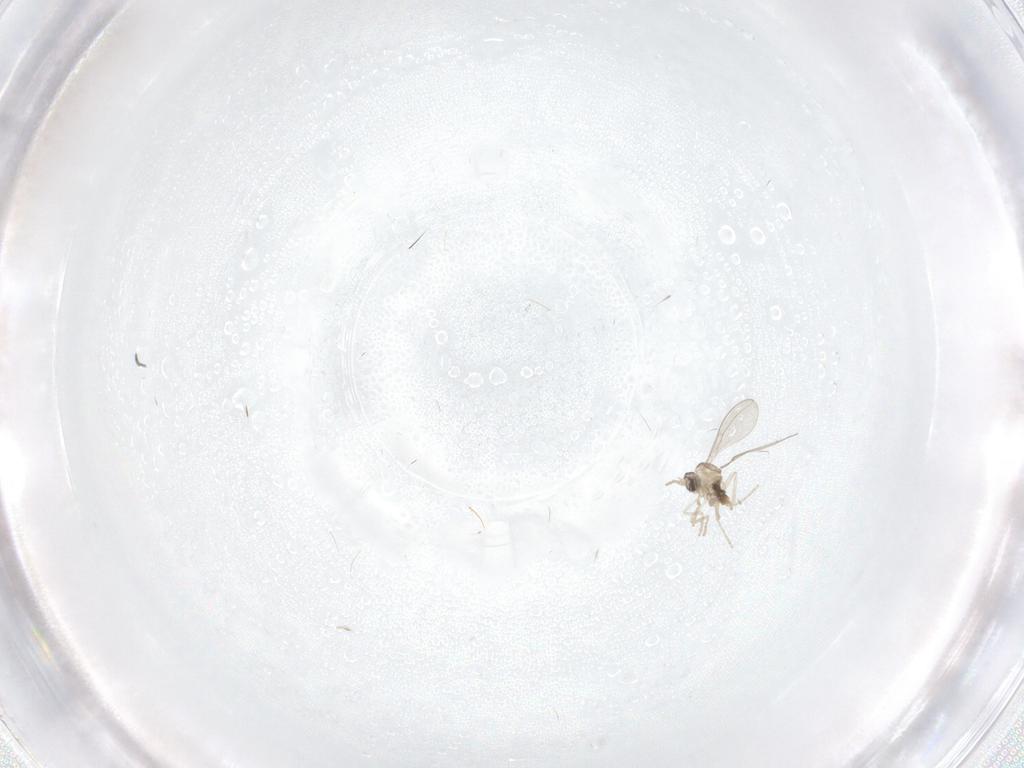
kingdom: Animalia
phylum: Arthropoda
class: Insecta
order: Diptera
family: Cecidomyiidae
